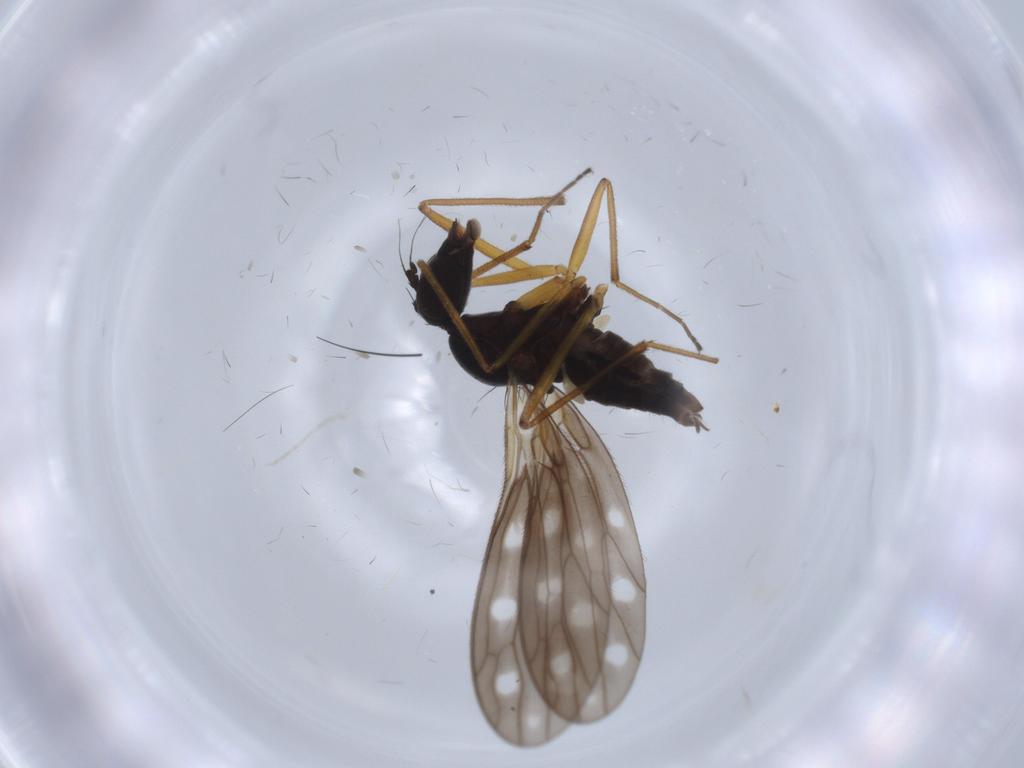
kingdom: Animalia
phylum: Arthropoda
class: Insecta
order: Diptera
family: Empididae
